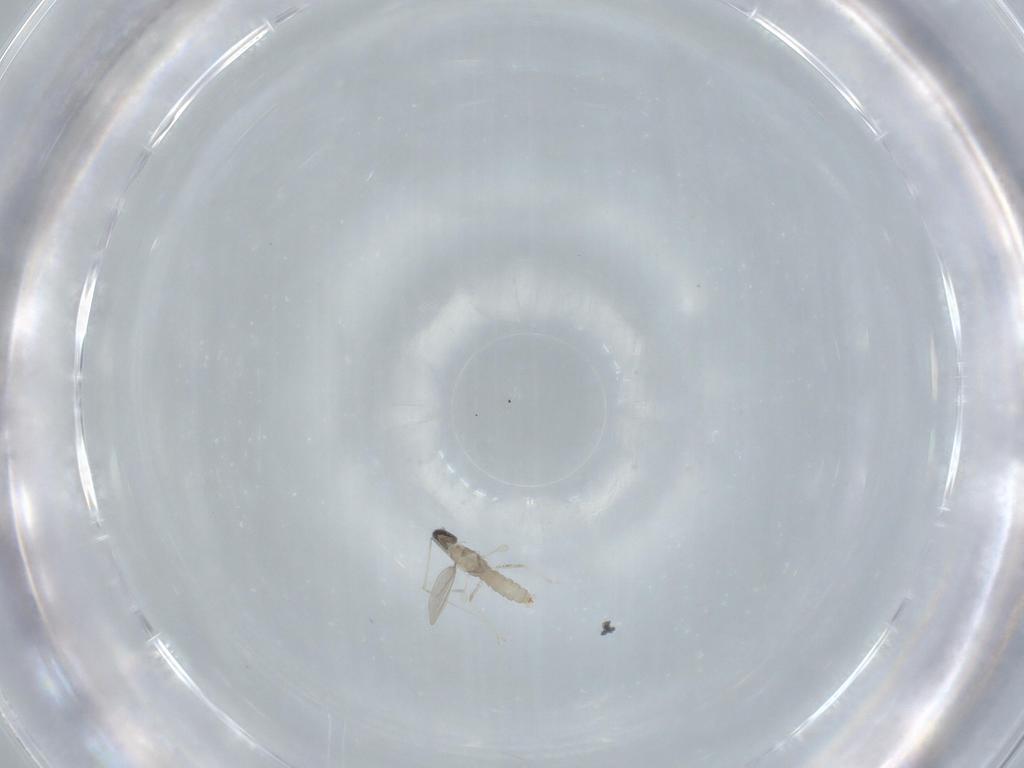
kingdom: Animalia
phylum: Arthropoda
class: Insecta
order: Diptera
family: Cecidomyiidae
